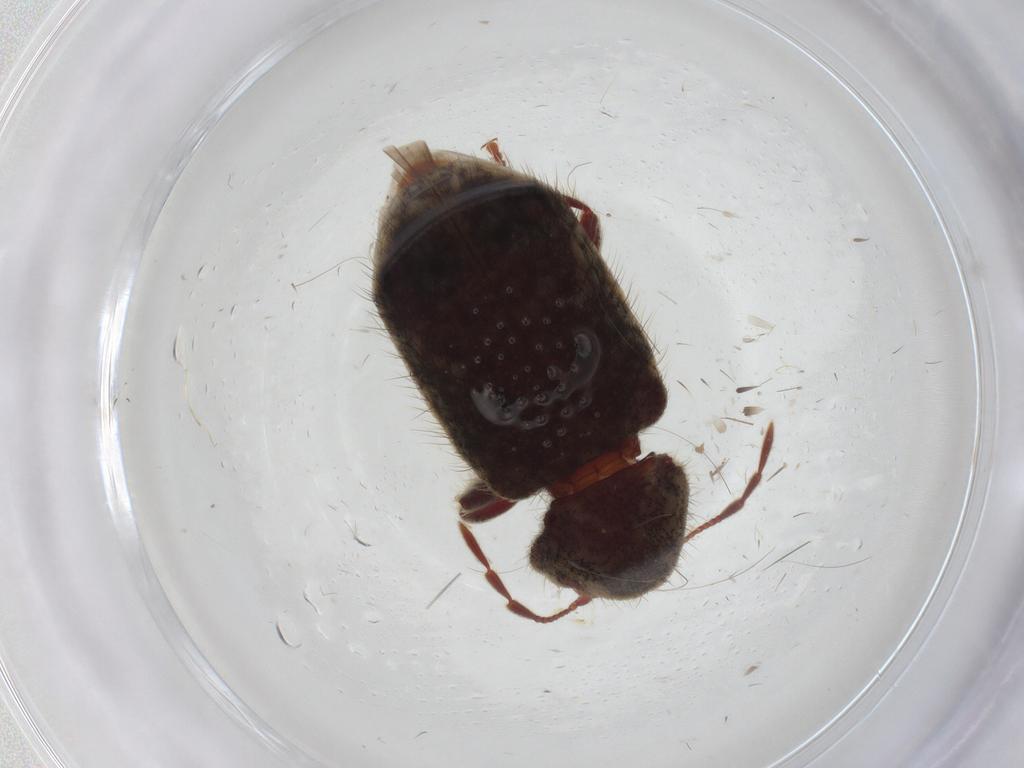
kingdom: Animalia
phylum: Arthropoda
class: Insecta
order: Coleoptera
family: Ptinidae
